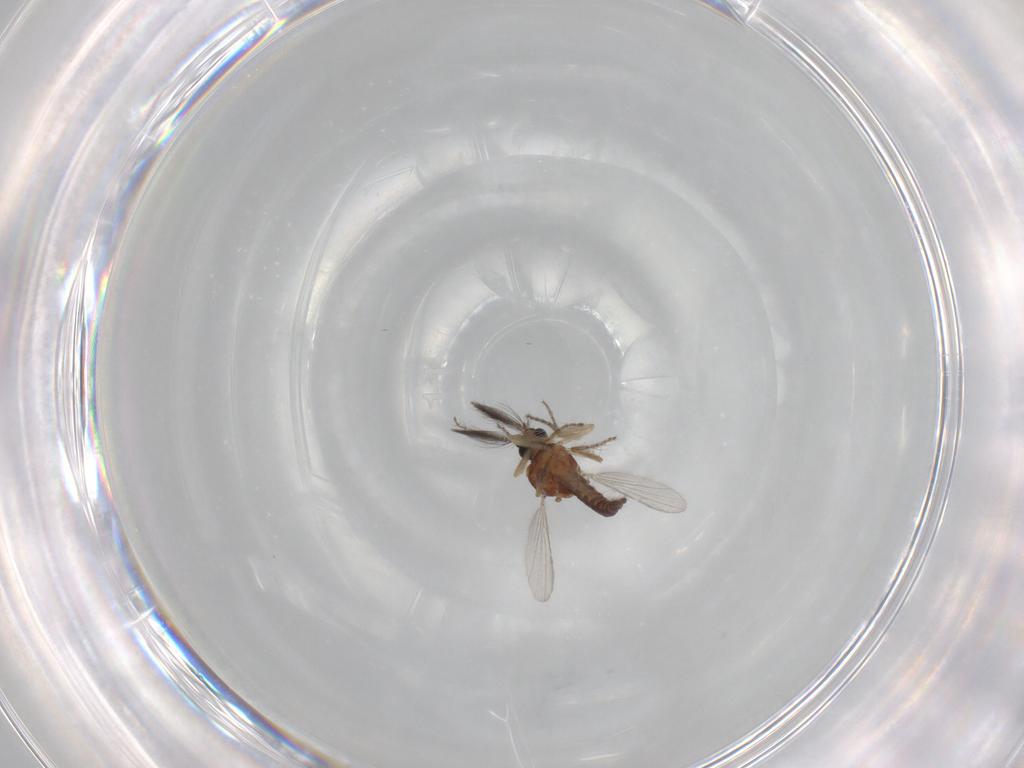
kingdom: Animalia
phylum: Arthropoda
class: Insecta
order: Diptera
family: Ceratopogonidae
